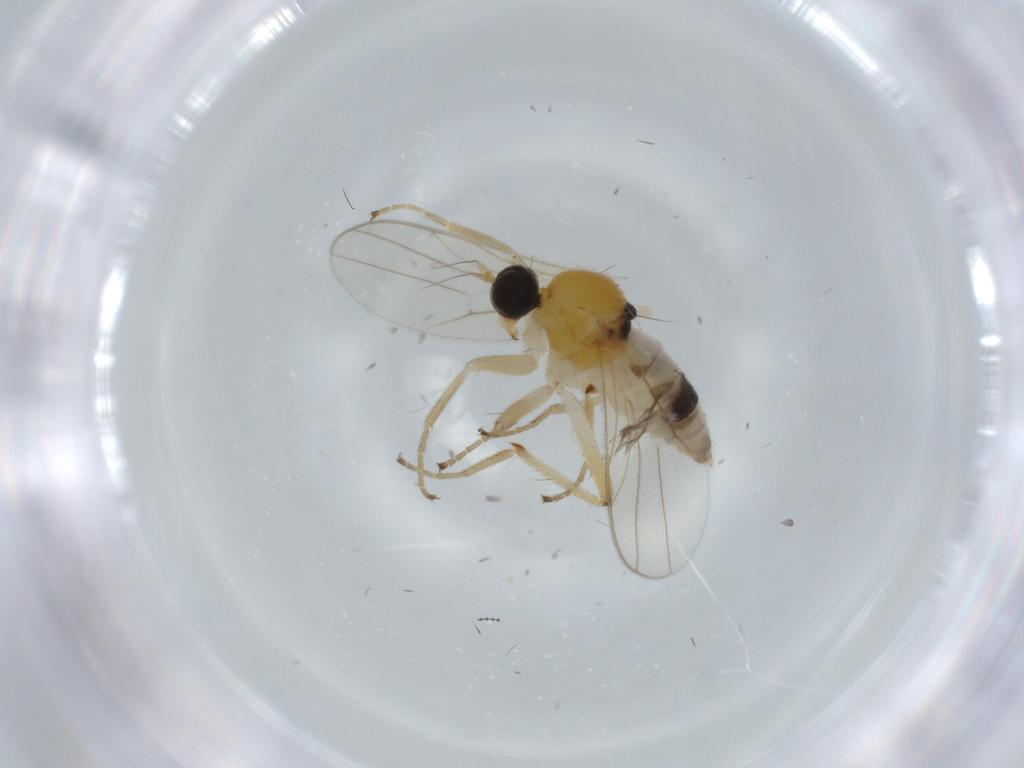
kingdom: Animalia
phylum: Arthropoda
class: Insecta
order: Diptera
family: Hybotidae
